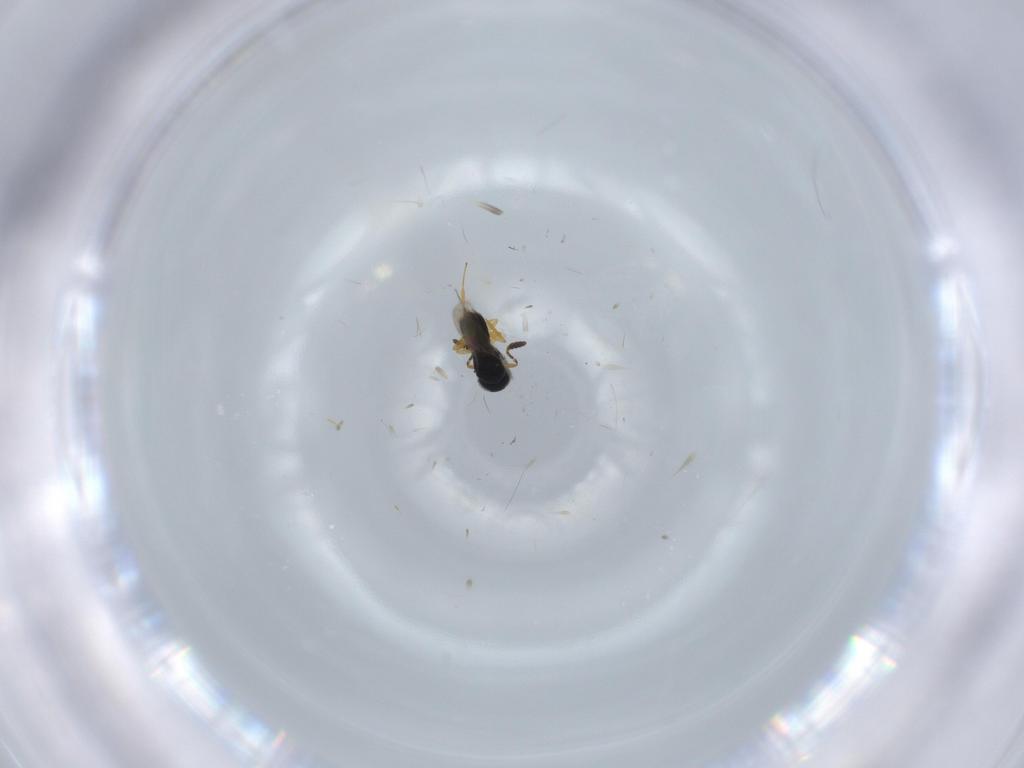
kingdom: Animalia
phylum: Arthropoda
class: Insecta
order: Hymenoptera
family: Scelionidae
